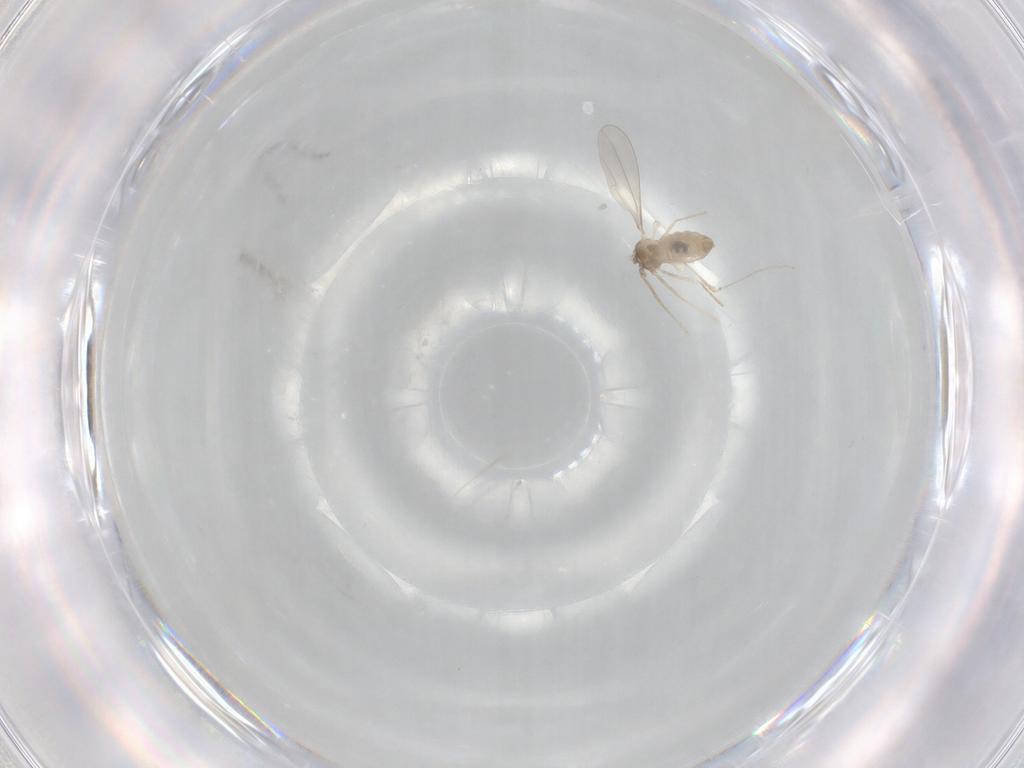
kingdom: Animalia
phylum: Arthropoda
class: Insecta
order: Diptera
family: Cecidomyiidae
